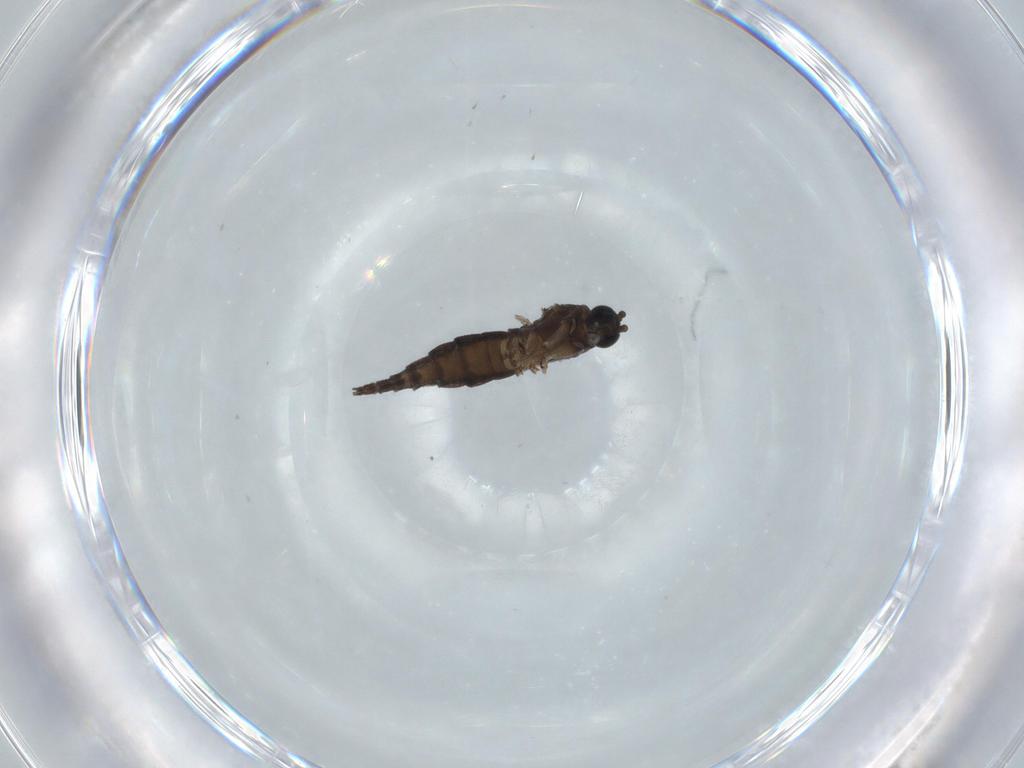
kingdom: Animalia
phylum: Arthropoda
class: Insecta
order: Diptera
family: Sciaridae
